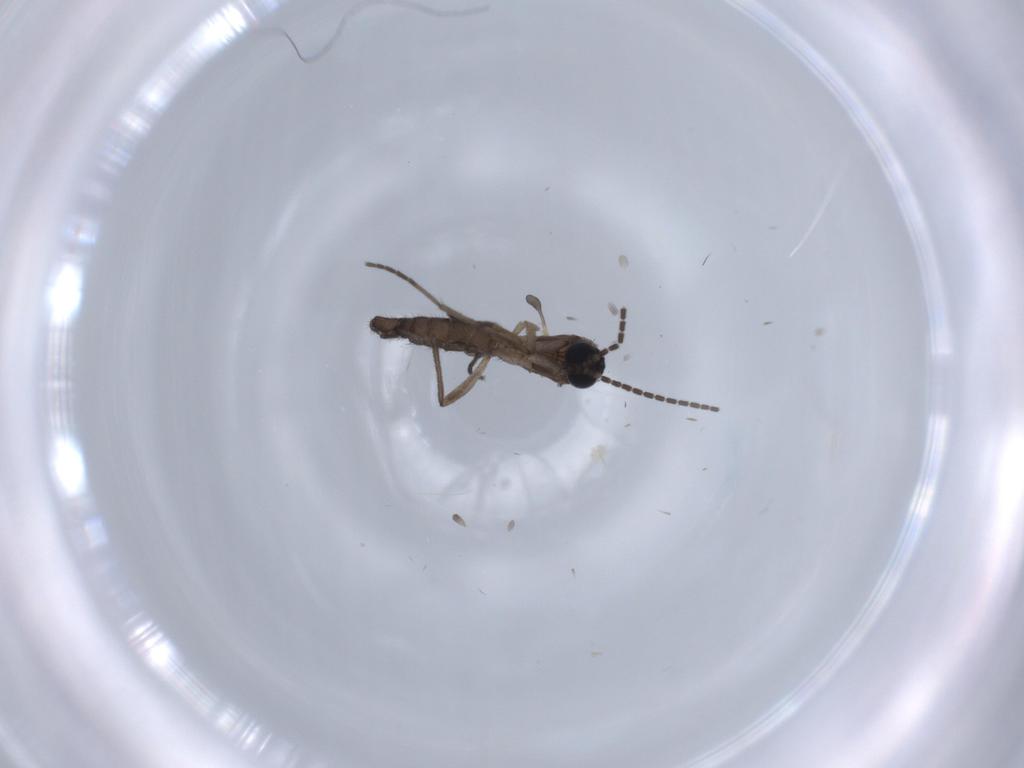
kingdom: Animalia
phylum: Arthropoda
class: Insecta
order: Diptera
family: Sciaridae
